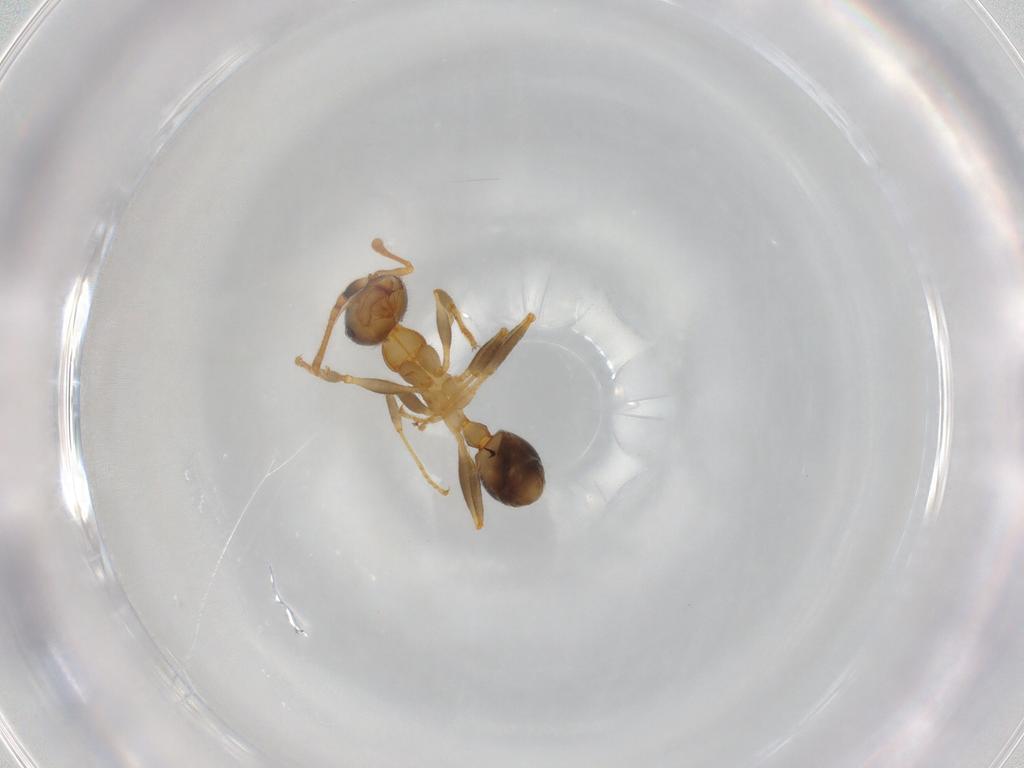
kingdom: Animalia
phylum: Arthropoda
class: Insecta
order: Hymenoptera
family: Formicidae
